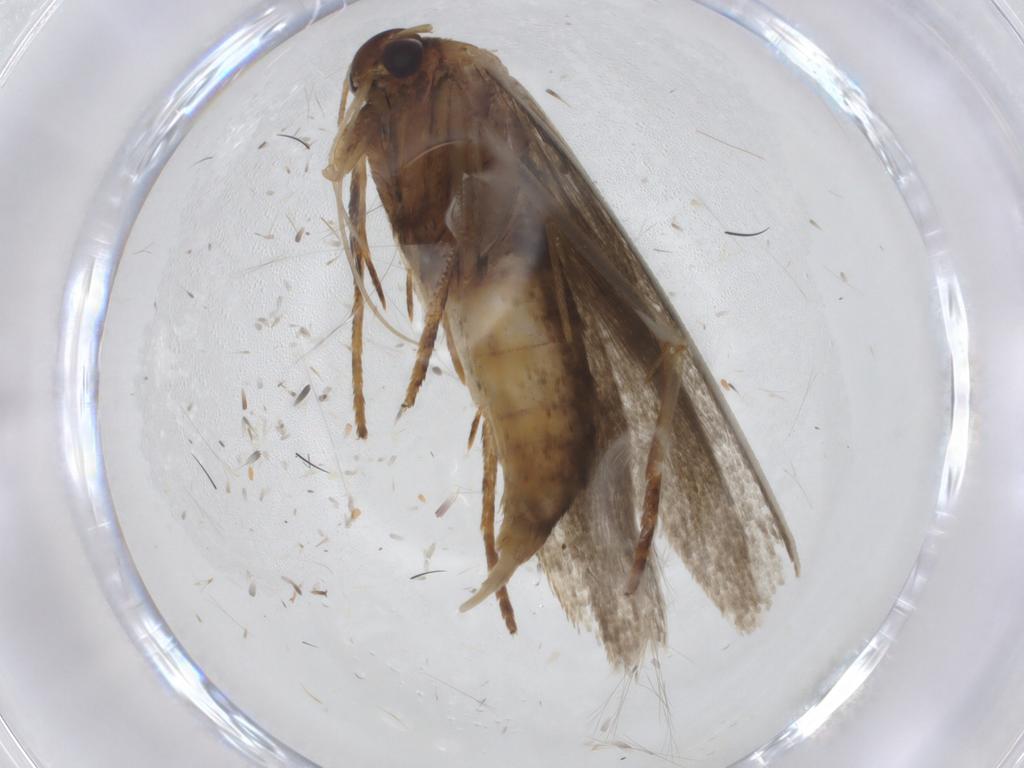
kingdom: Animalia
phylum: Arthropoda
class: Insecta
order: Lepidoptera
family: Blastobasidae
